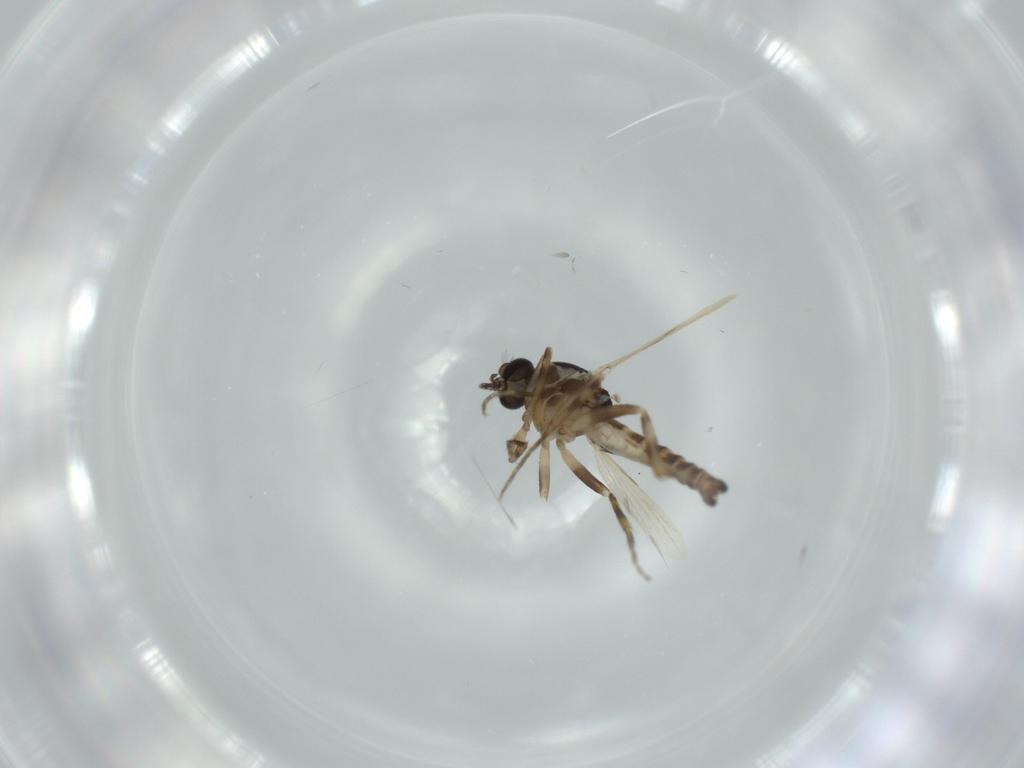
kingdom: Animalia
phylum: Arthropoda
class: Insecta
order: Diptera
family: Ceratopogonidae
